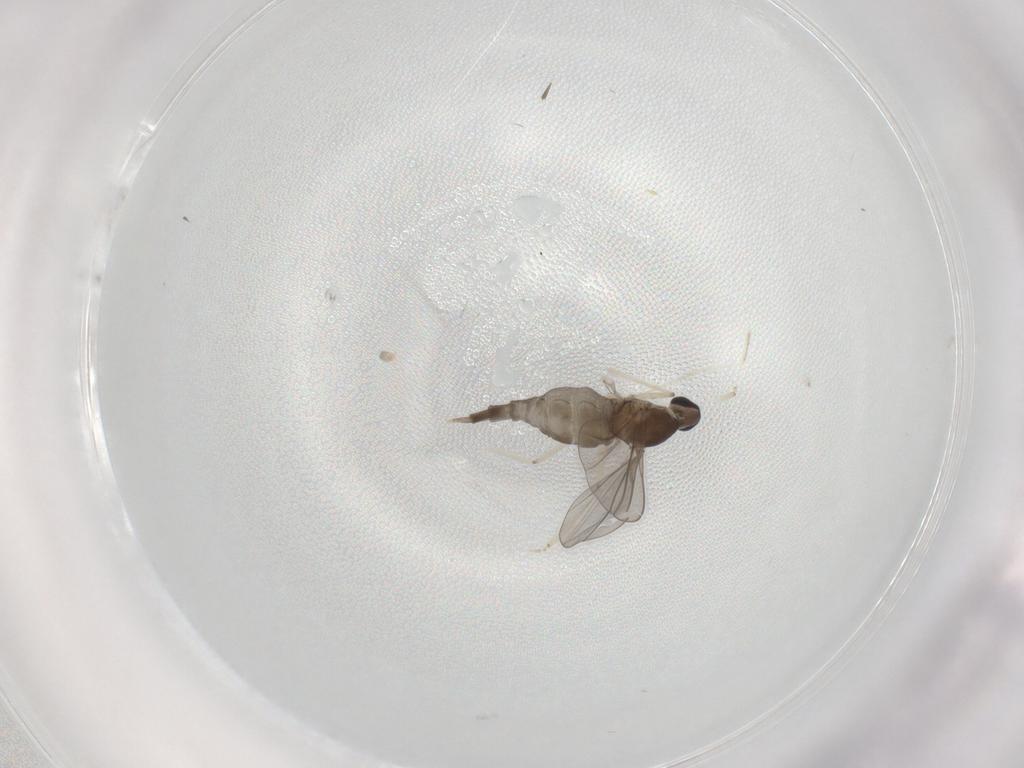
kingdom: Animalia
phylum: Arthropoda
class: Insecta
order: Diptera
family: Cecidomyiidae
